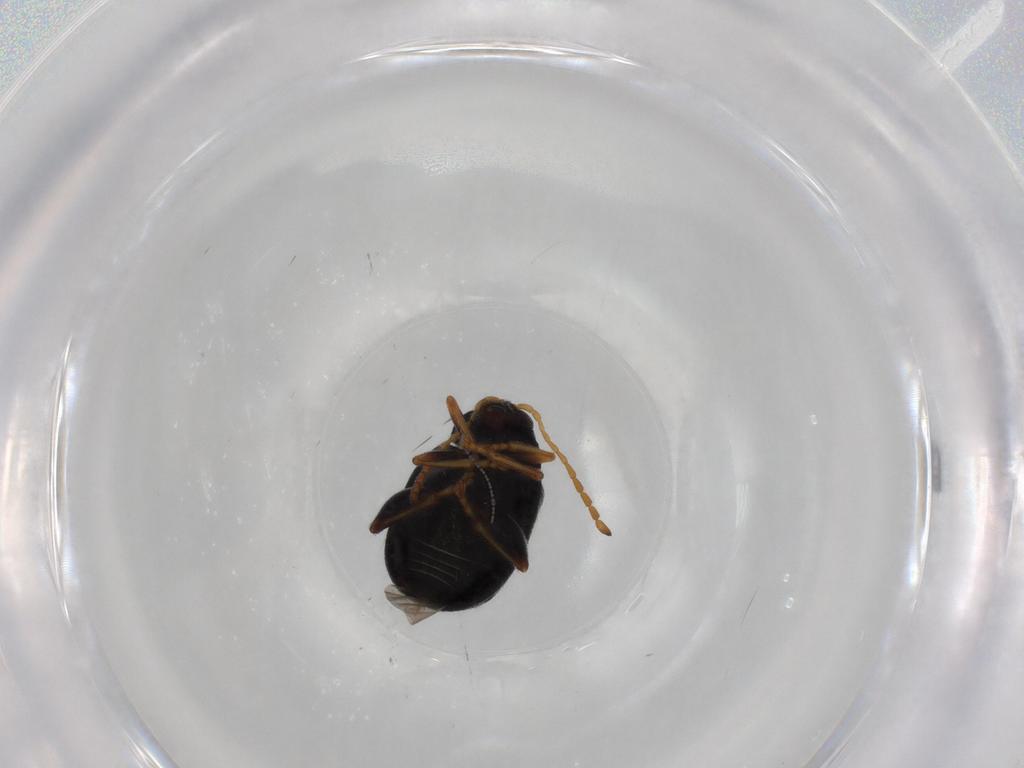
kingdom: Animalia
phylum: Arthropoda
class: Insecta
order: Coleoptera
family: Chrysomelidae
